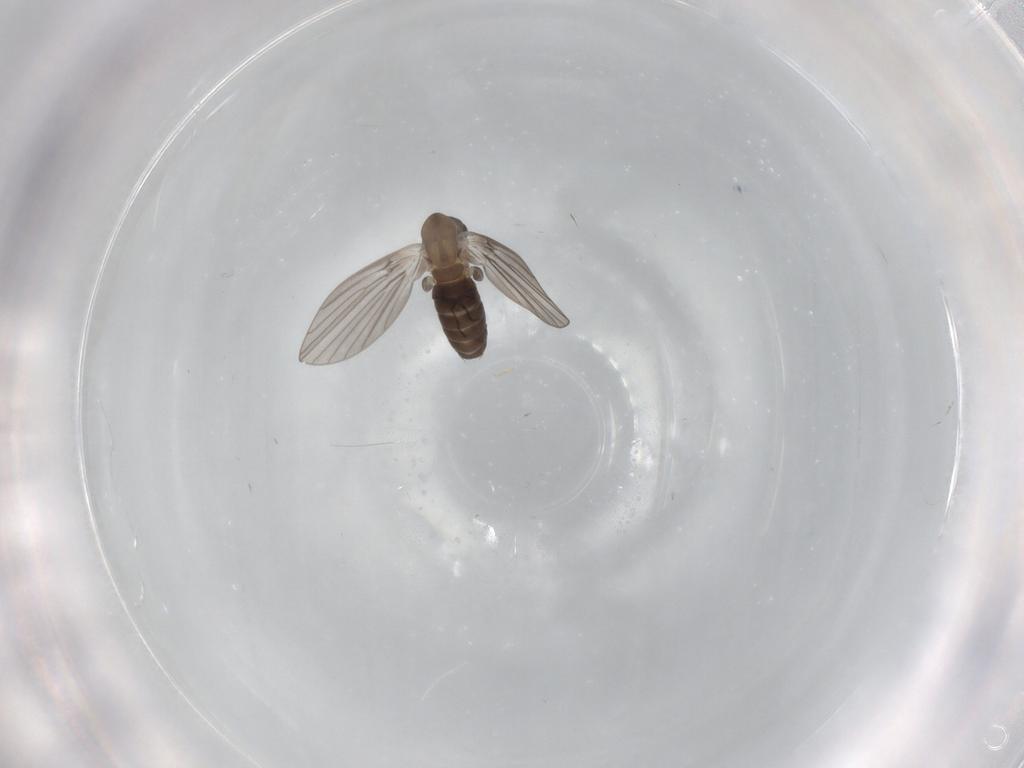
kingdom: Animalia
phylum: Arthropoda
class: Insecta
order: Diptera
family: Psychodidae
